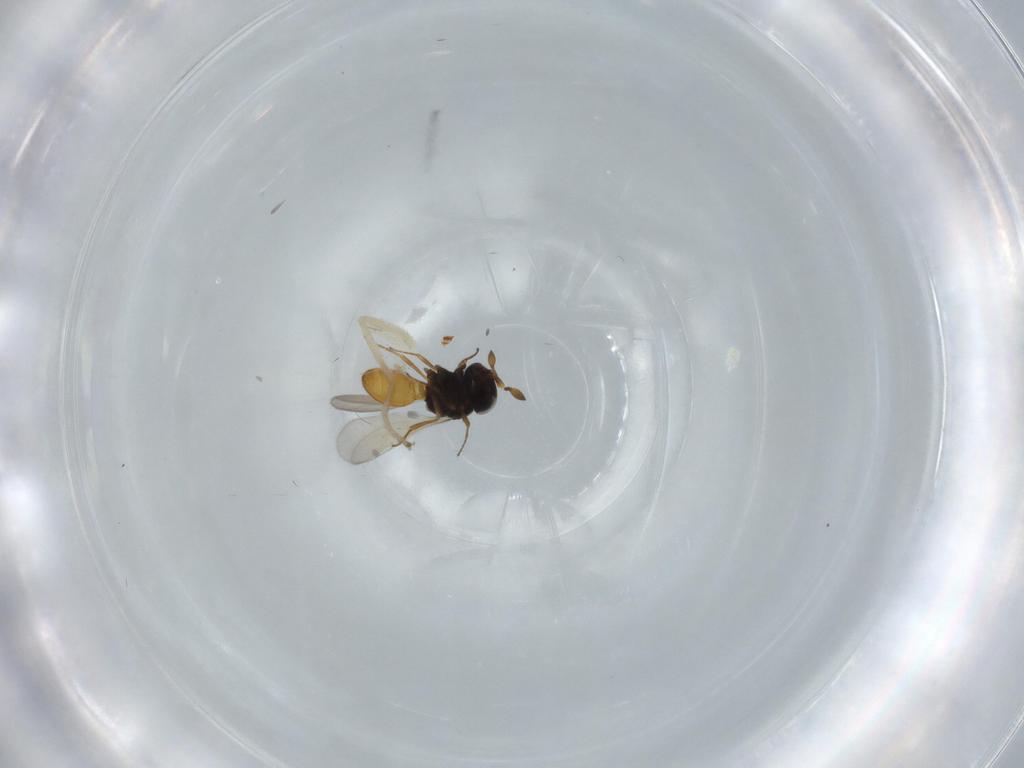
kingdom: Animalia
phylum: Arthropoda
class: Insecta
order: Hymenoptera
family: Scelionidae
